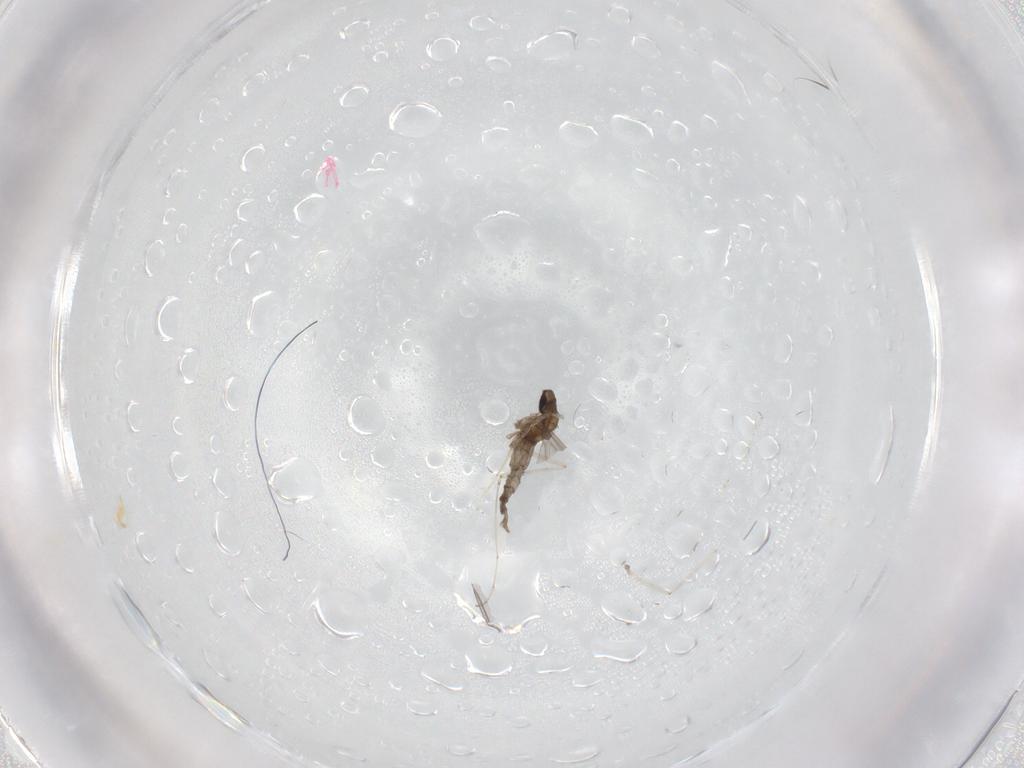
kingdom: Animalia
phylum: Arthropoda
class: Insecta
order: Diptera
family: Cecidomyiidae
